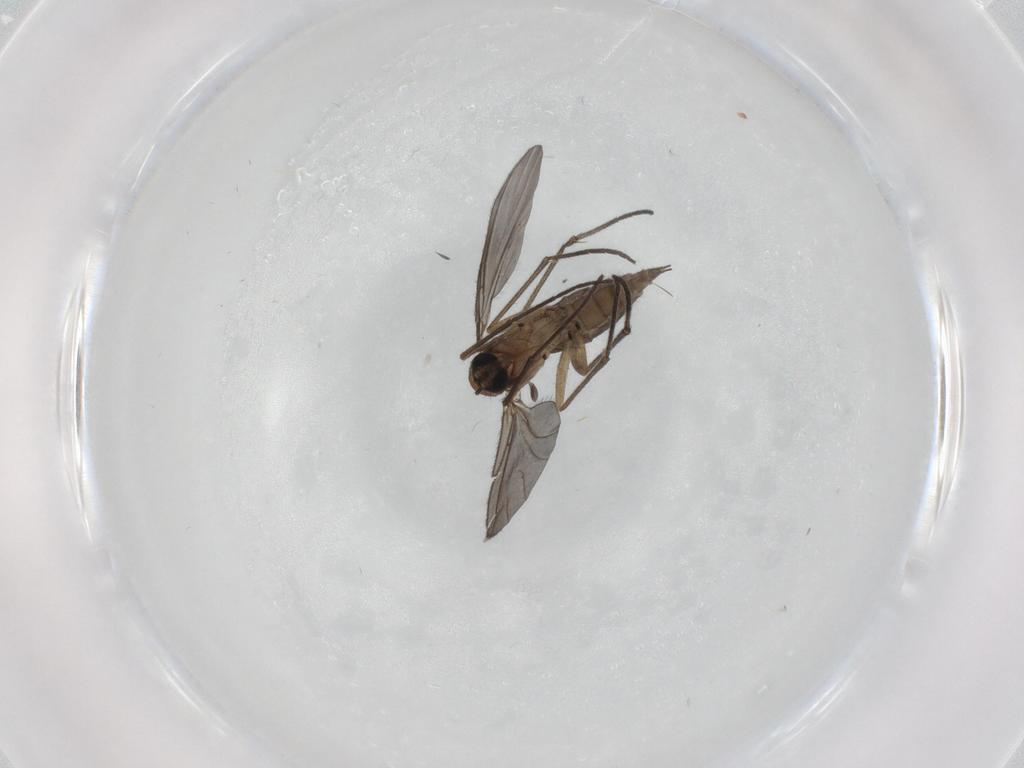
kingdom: Animalia
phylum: Arthropoda
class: Insecta
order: Diptera
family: Sciaridae
